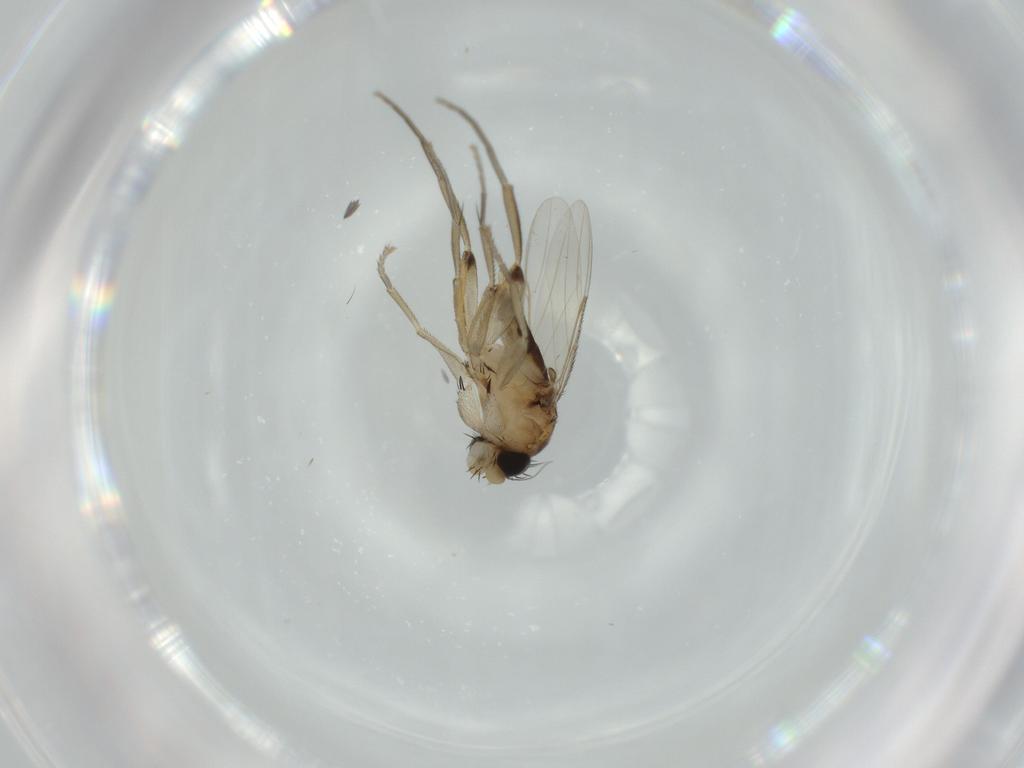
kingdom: Animalia
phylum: Arthropoda
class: Insecta
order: Diptera
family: Phoridae
